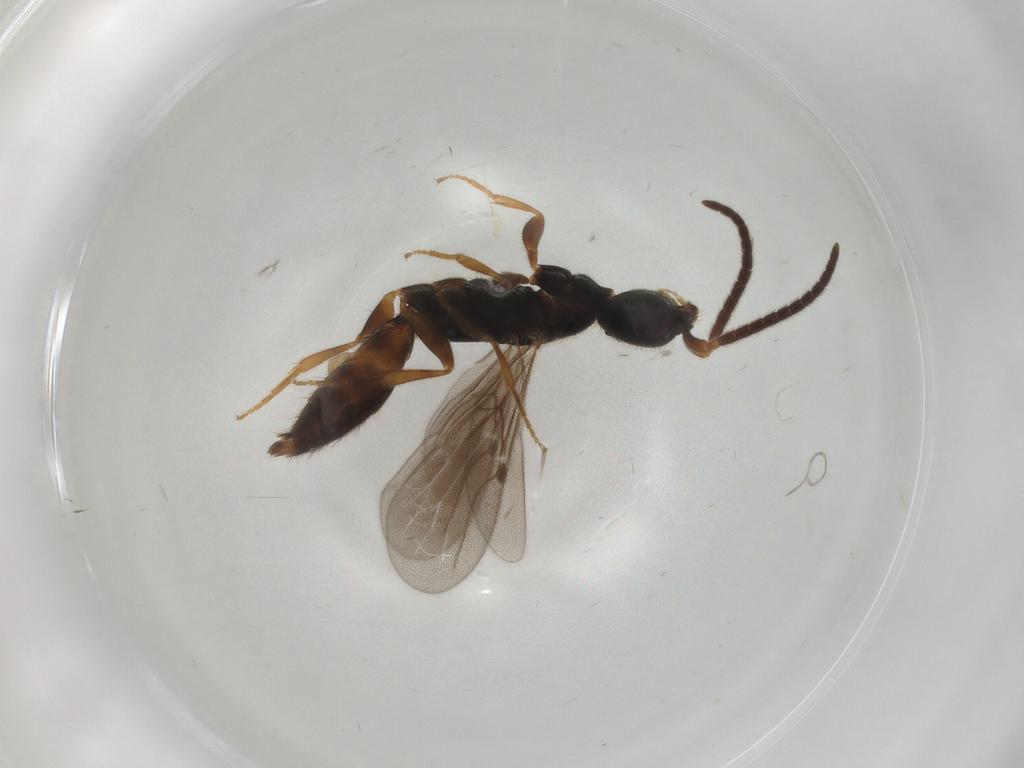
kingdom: Animalia
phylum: Arthropoda
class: Insecta
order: Hymenoptera
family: Bethylidae
